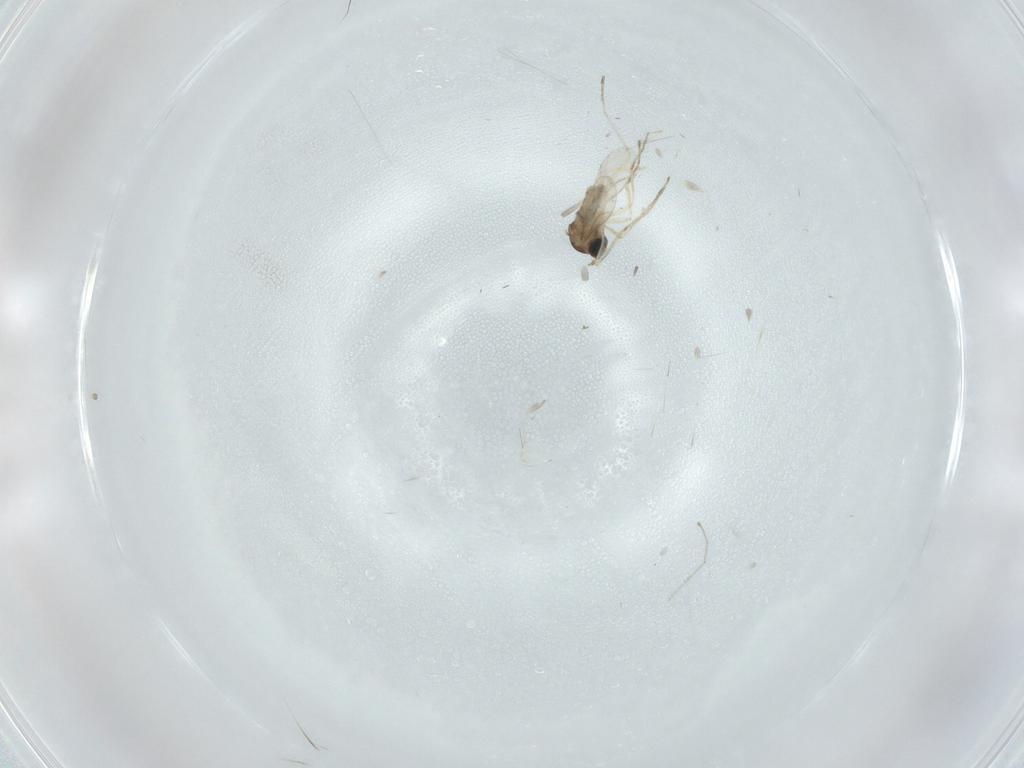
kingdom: Animalia
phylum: Arthropoda
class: Insecta
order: Diptera
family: Cecidomyiidae
